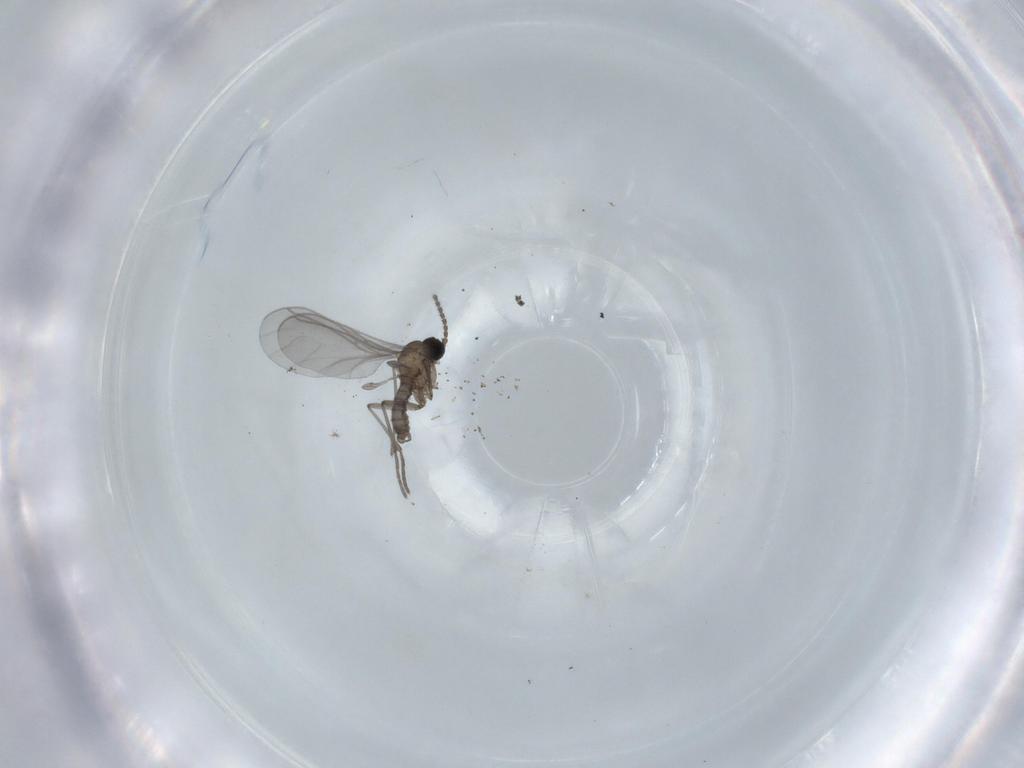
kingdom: Animalia
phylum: Arthropoda
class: Insecta
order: Diptera
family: Sciaridae
